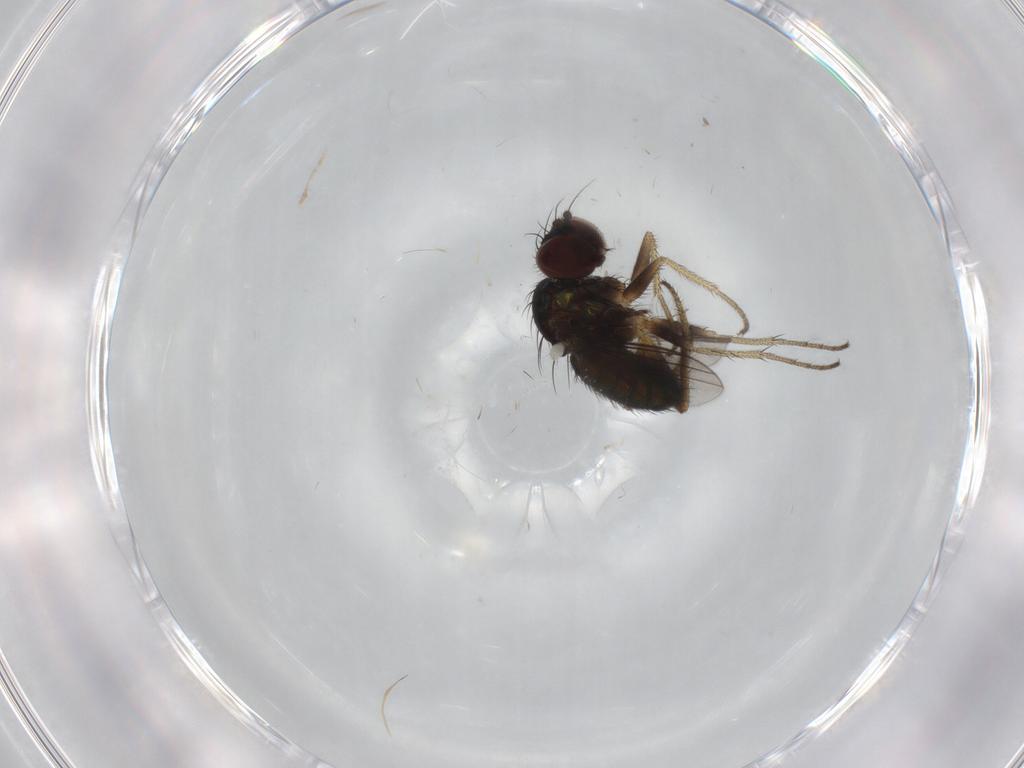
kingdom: Animalia
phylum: Arthropoda
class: Insecta
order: Diptera
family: Dolichopodidae
